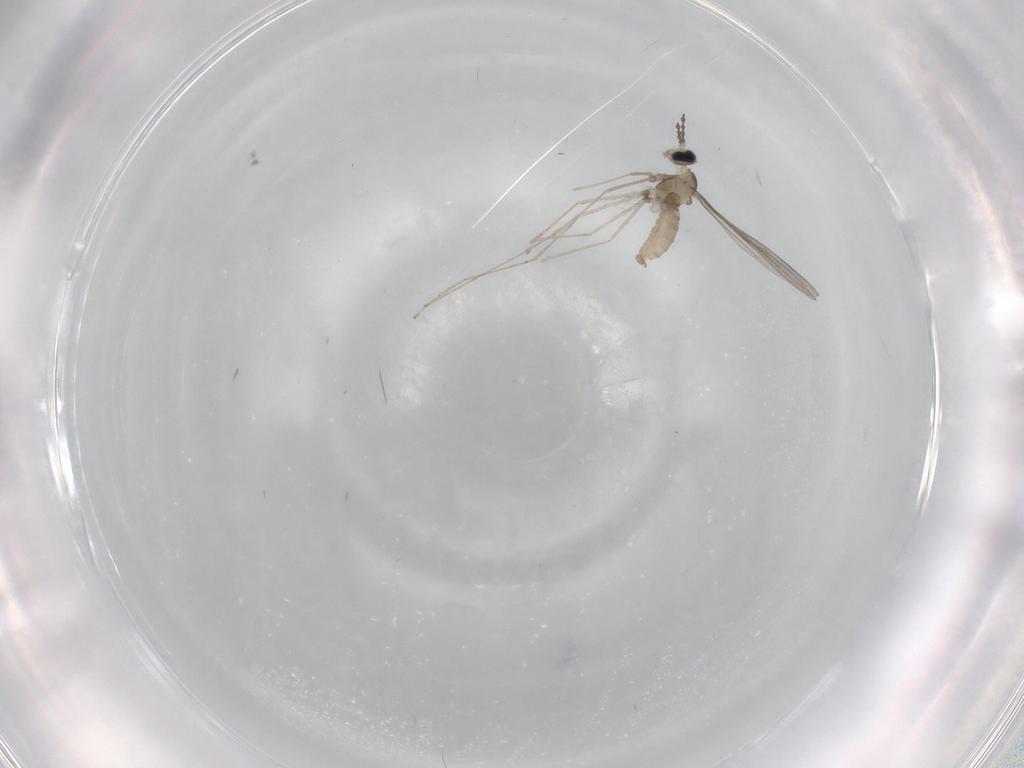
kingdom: Animalia
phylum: Arthropoda
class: Insecta
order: Diptera
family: Cecidomyiidae
